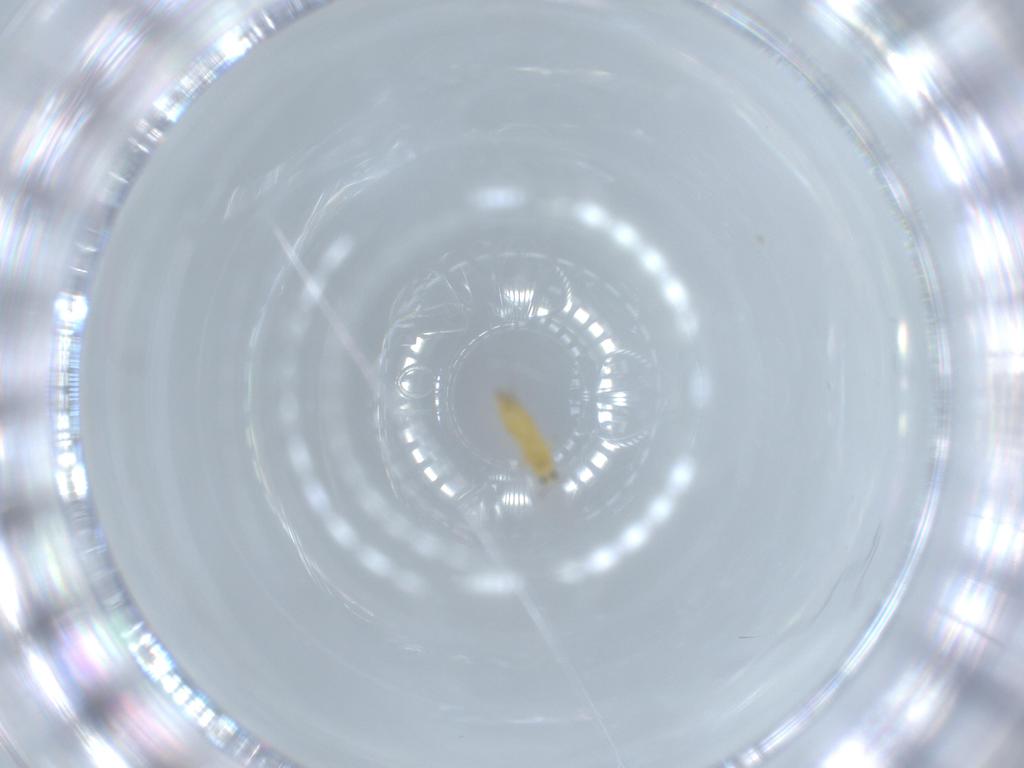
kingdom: Animalia
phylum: Arthropoda
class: Insecta
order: Thysanoptera
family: Thripidae
